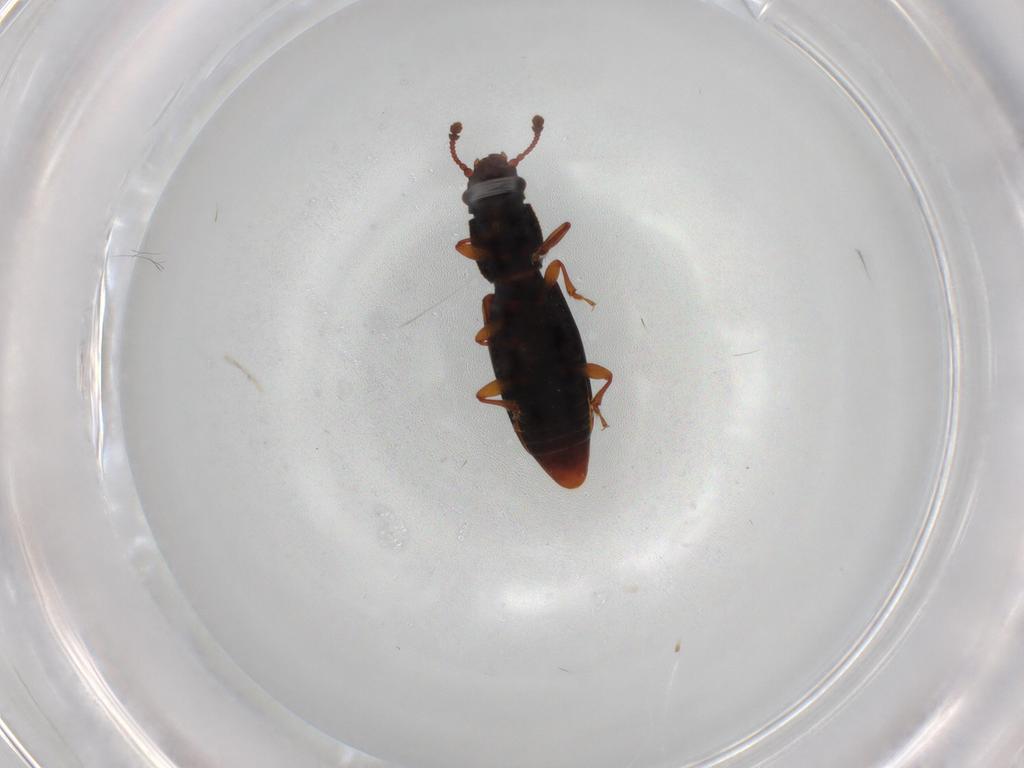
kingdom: Animalia
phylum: Arthropoda
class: Insecta
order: Coleoptera
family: Monotomidae
